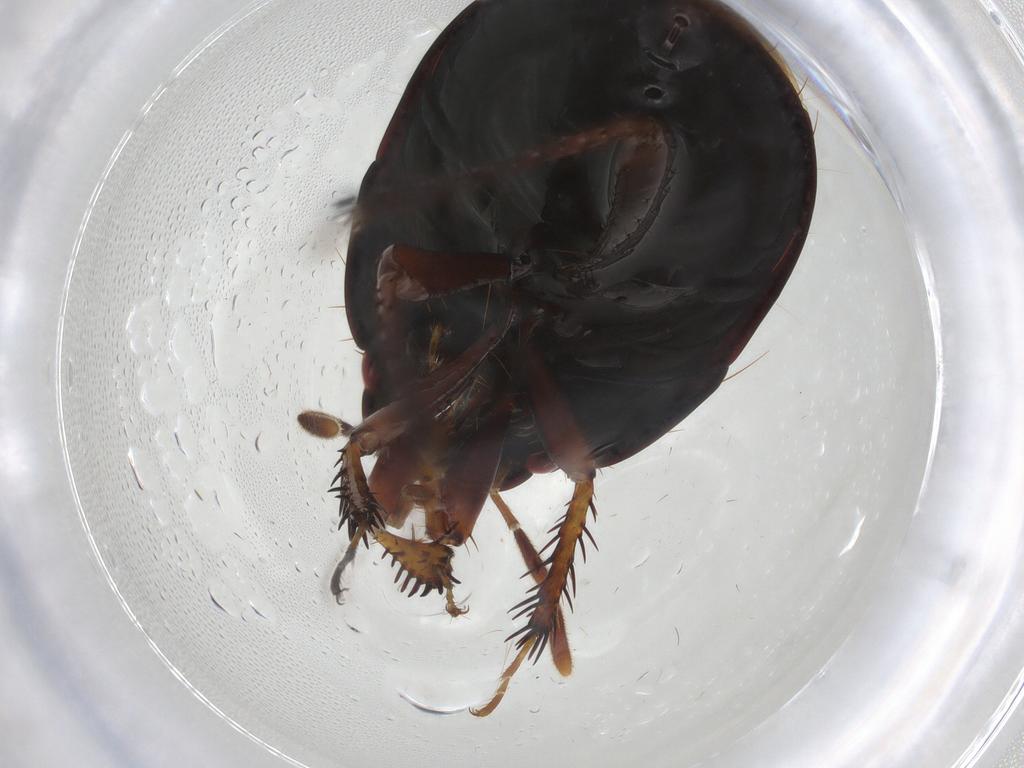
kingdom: Animalia
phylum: Arthropoda
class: Insecta
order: Hemiptera
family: Cydnidae
